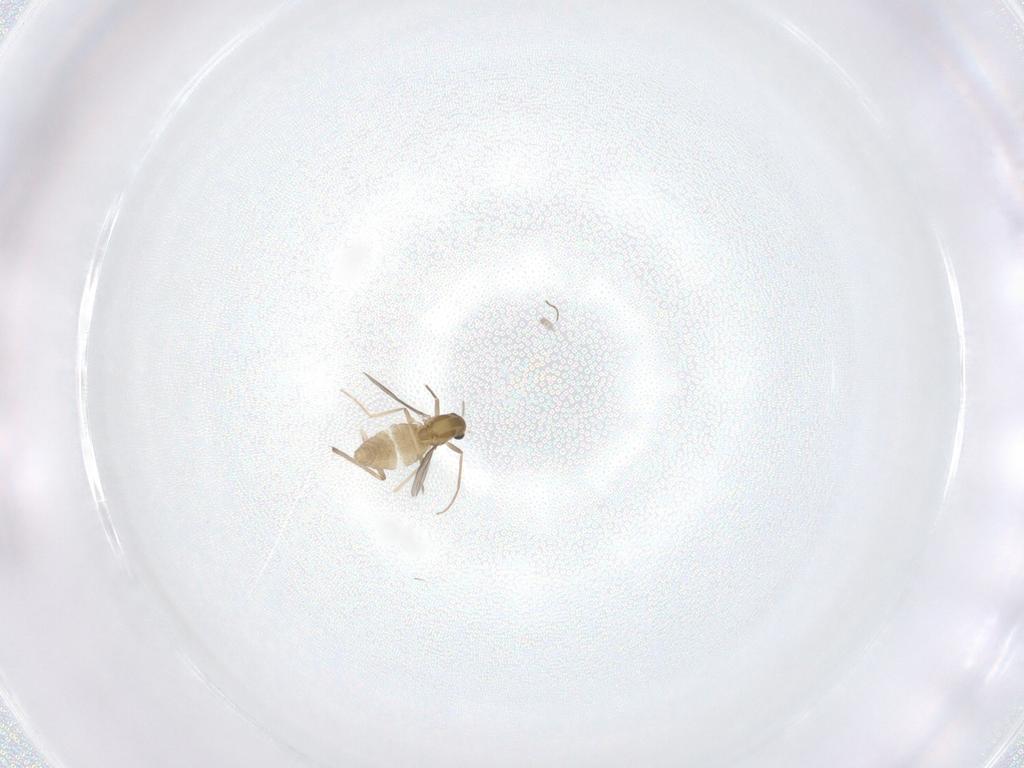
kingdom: Animalia
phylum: Arthropoda
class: Insecta
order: Diptera
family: Chironomidae
